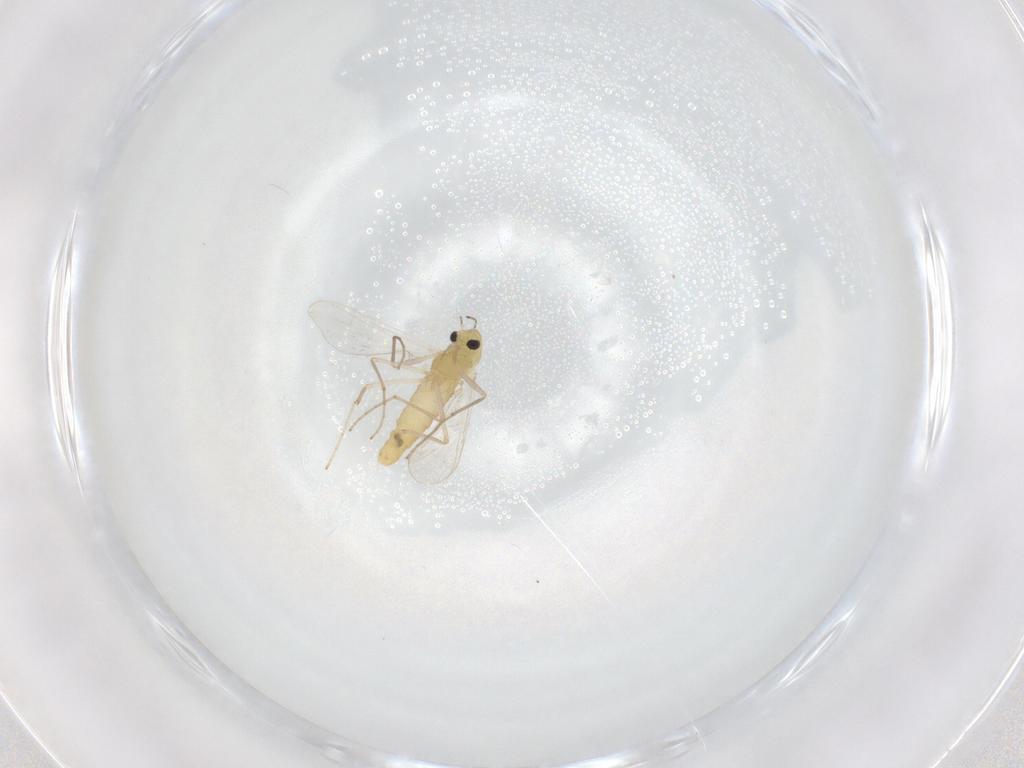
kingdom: Animalia
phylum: Arthropoda
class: Insecta
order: Diptera
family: Chironomidae
